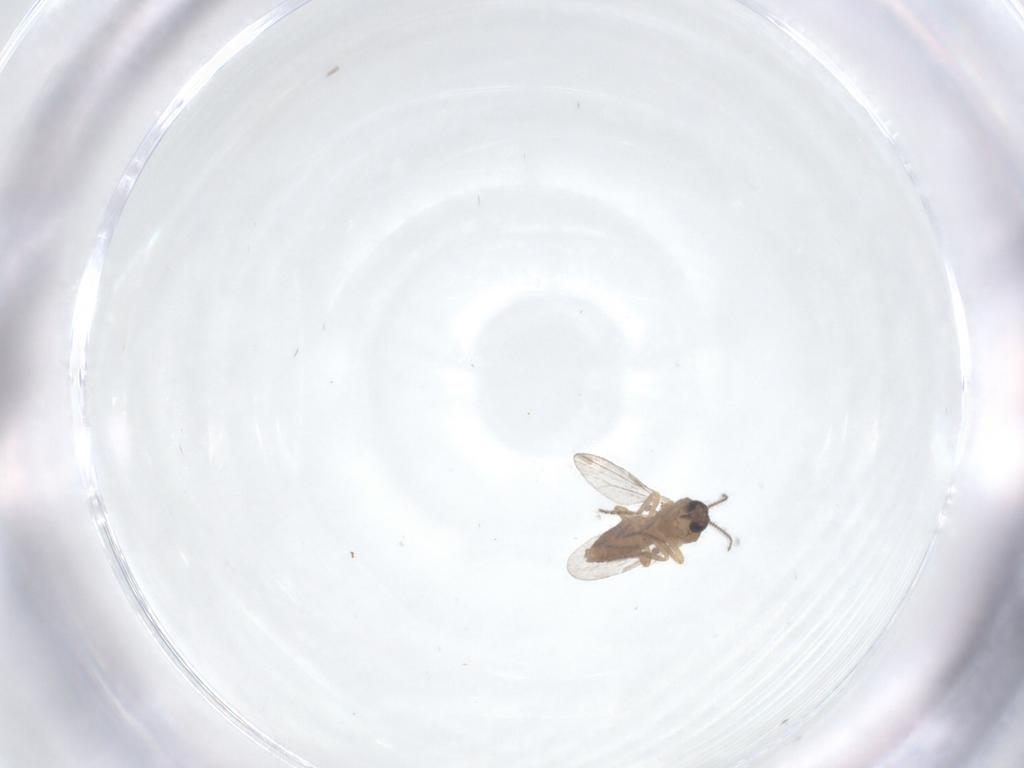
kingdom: Animalia
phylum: Arthropoda
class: Insecta
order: Diptera
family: Ceratopogonidae
